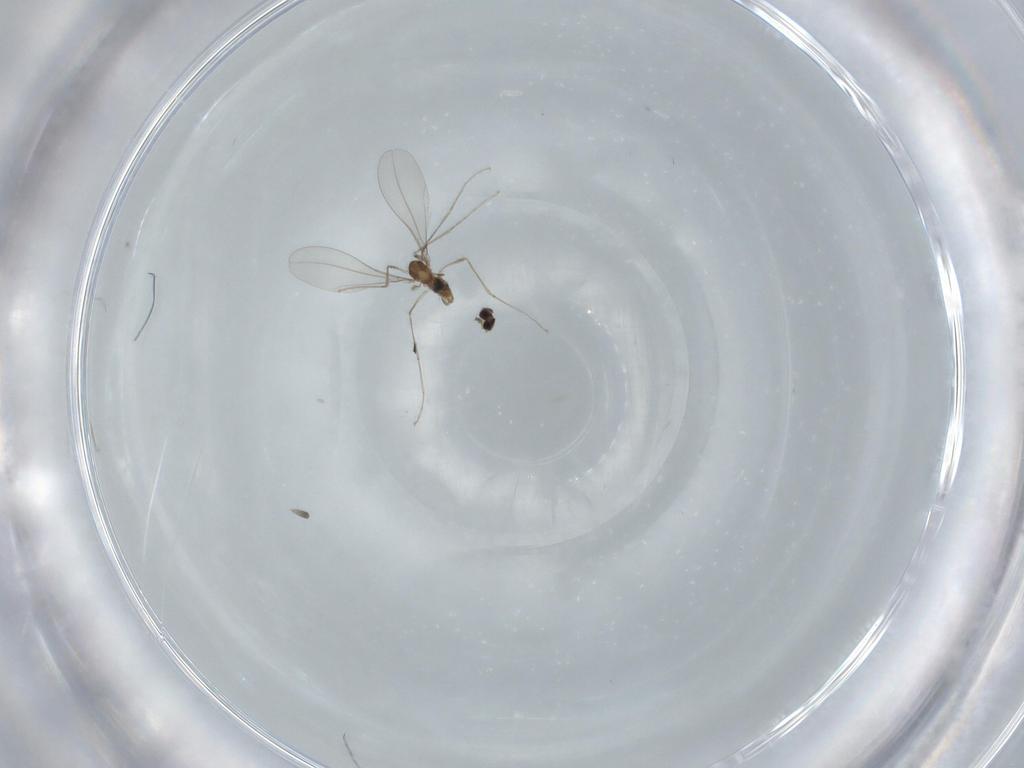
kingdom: Animalia
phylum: Arthropoda
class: Insecta
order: Diptera
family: Cecidomyiidae
